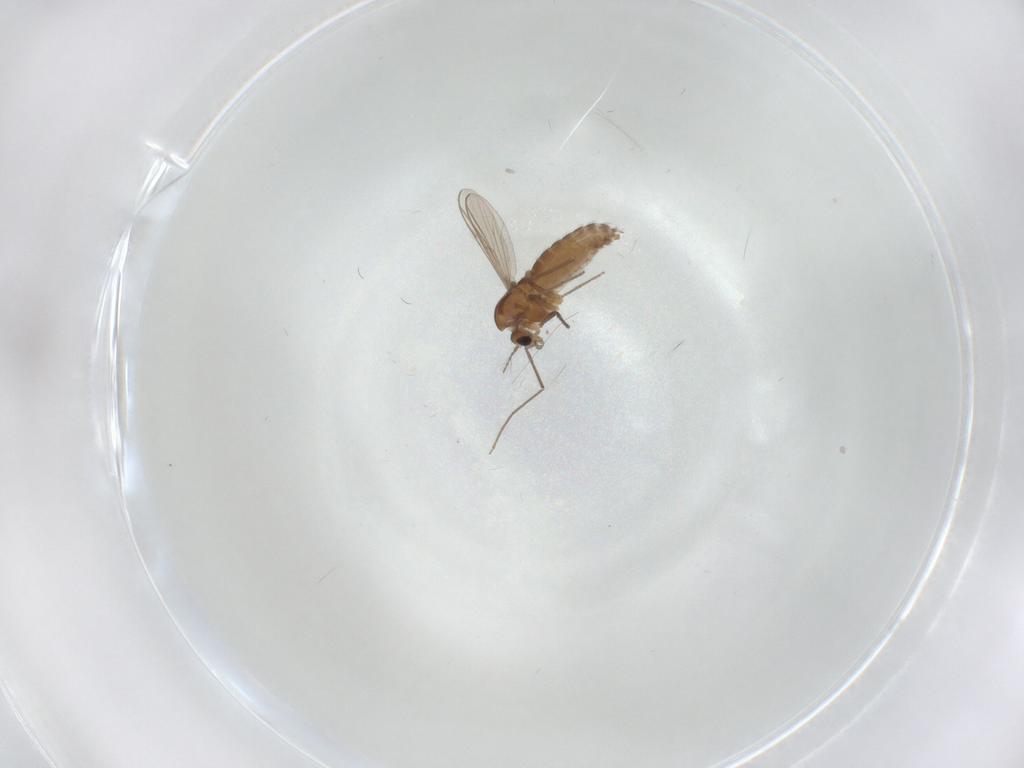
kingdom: Animalia
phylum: Arthropoda
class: Insecta
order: Diptera
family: Chironomidae
